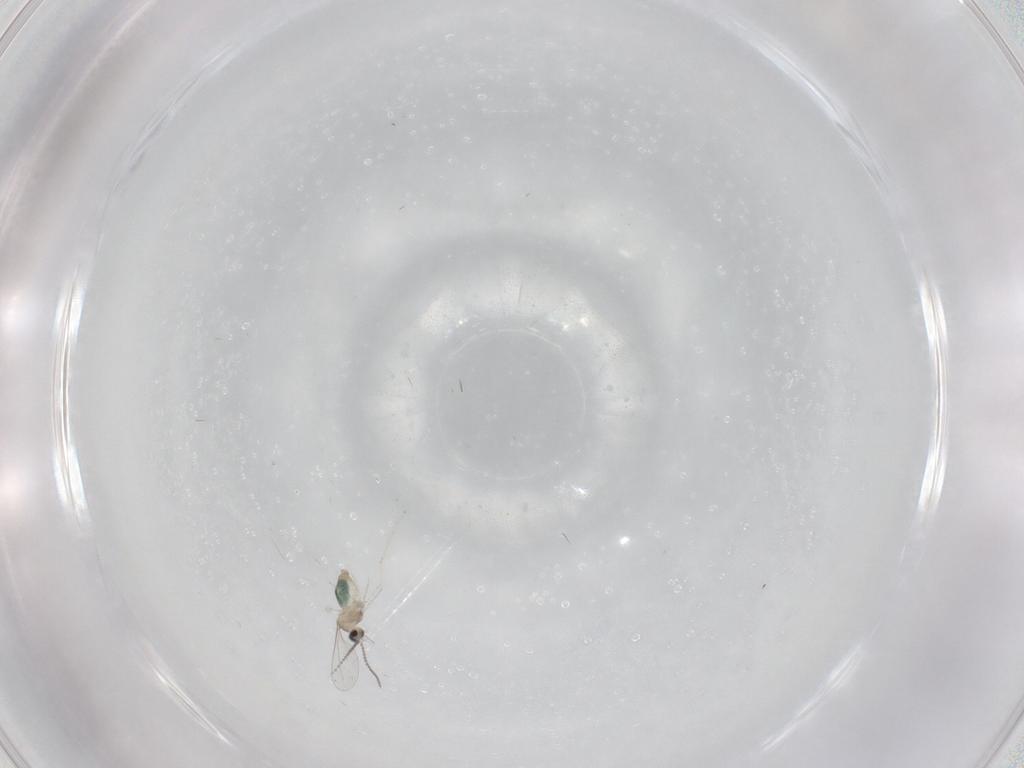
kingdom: Animalia
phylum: Arthropoda
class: Insecta
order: Diptera
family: Cecidomyiidae
